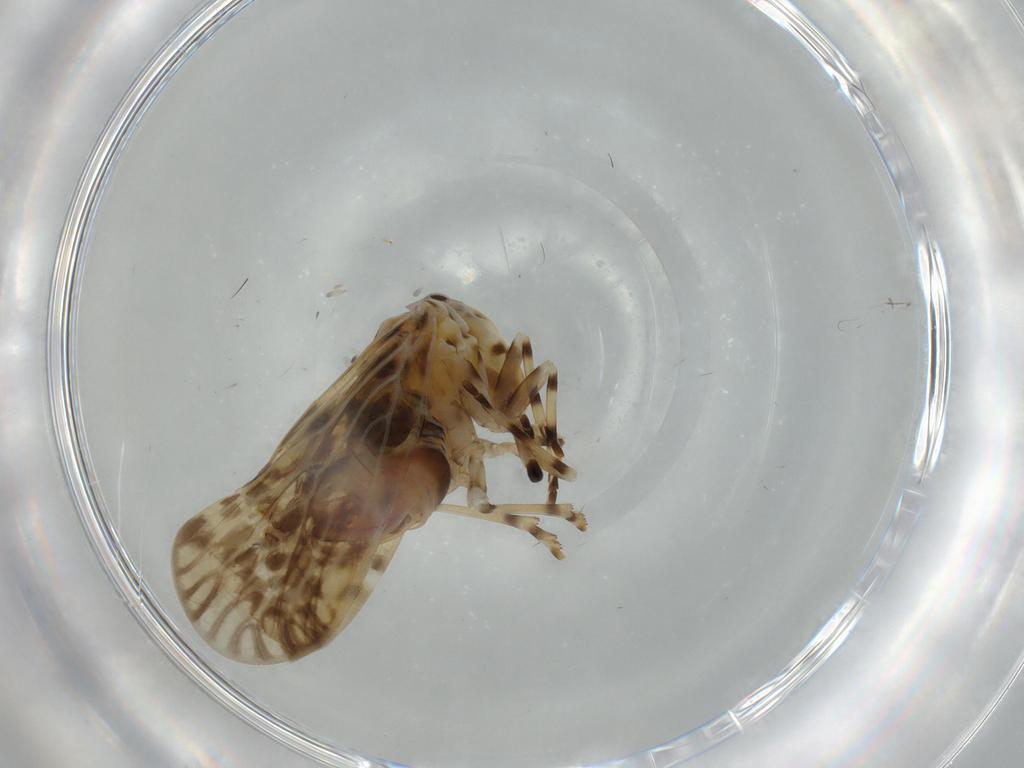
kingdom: Animalia
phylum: Arthropoda
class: Insecta
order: Hemiptera
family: Derbidae
